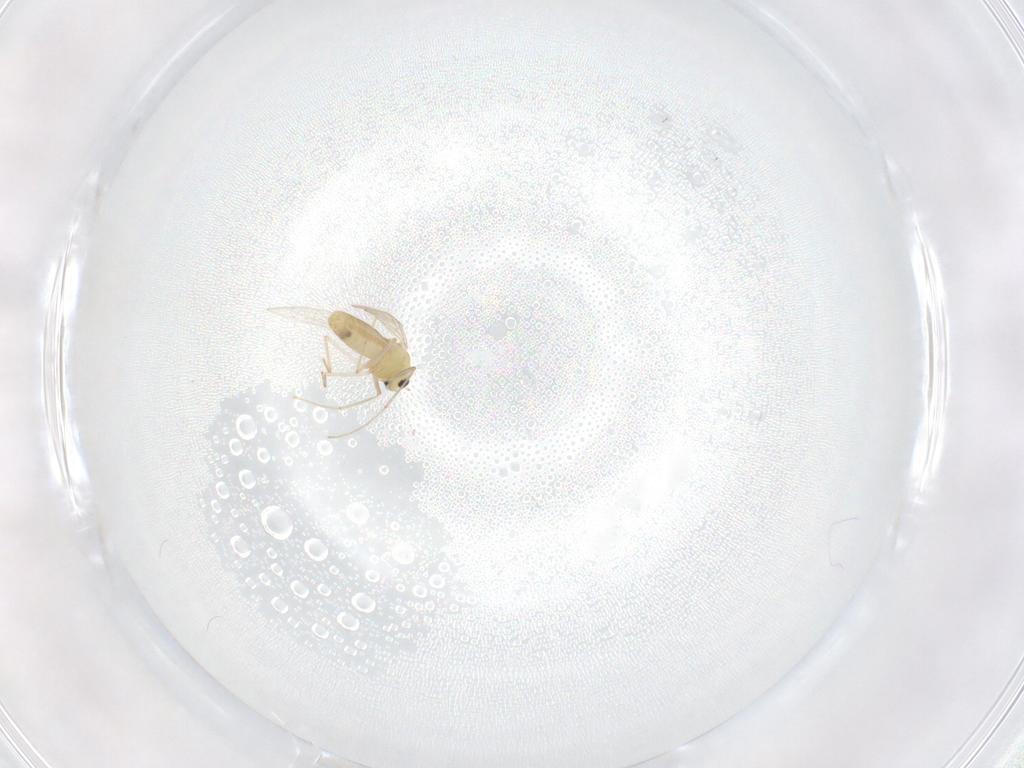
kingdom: Animalia
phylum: Arthropoda
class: Insecta
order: Diptera
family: Chironomidae
